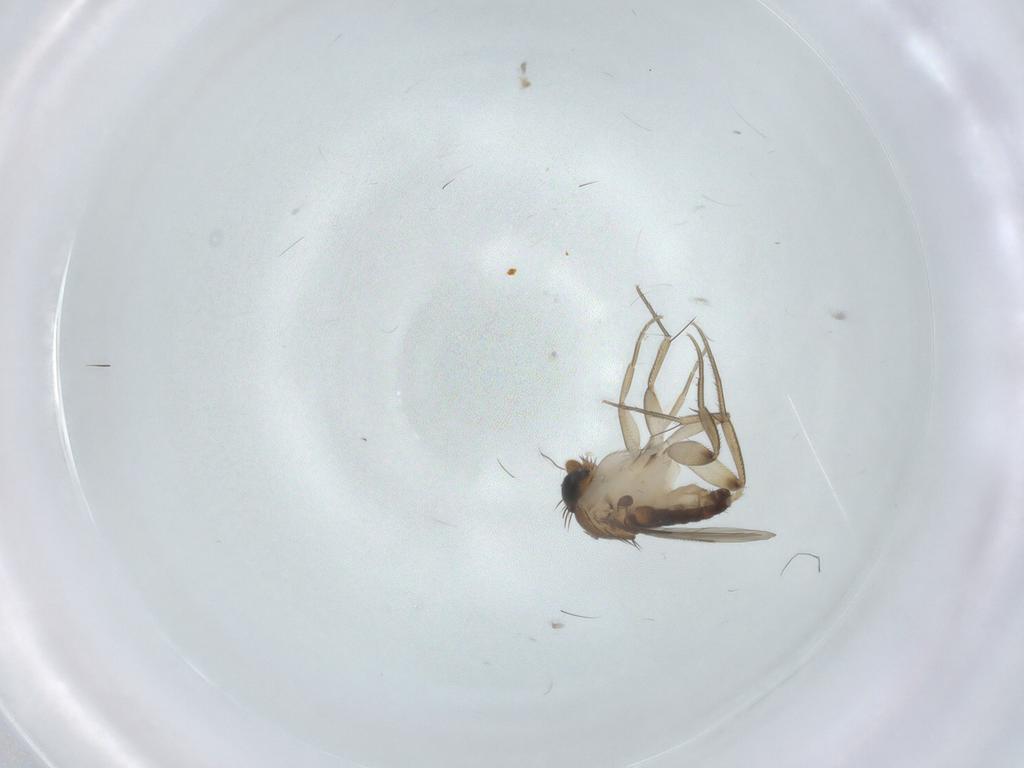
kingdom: Animalia
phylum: Arthropoda
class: Insecta
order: Diptera
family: Phoridae
